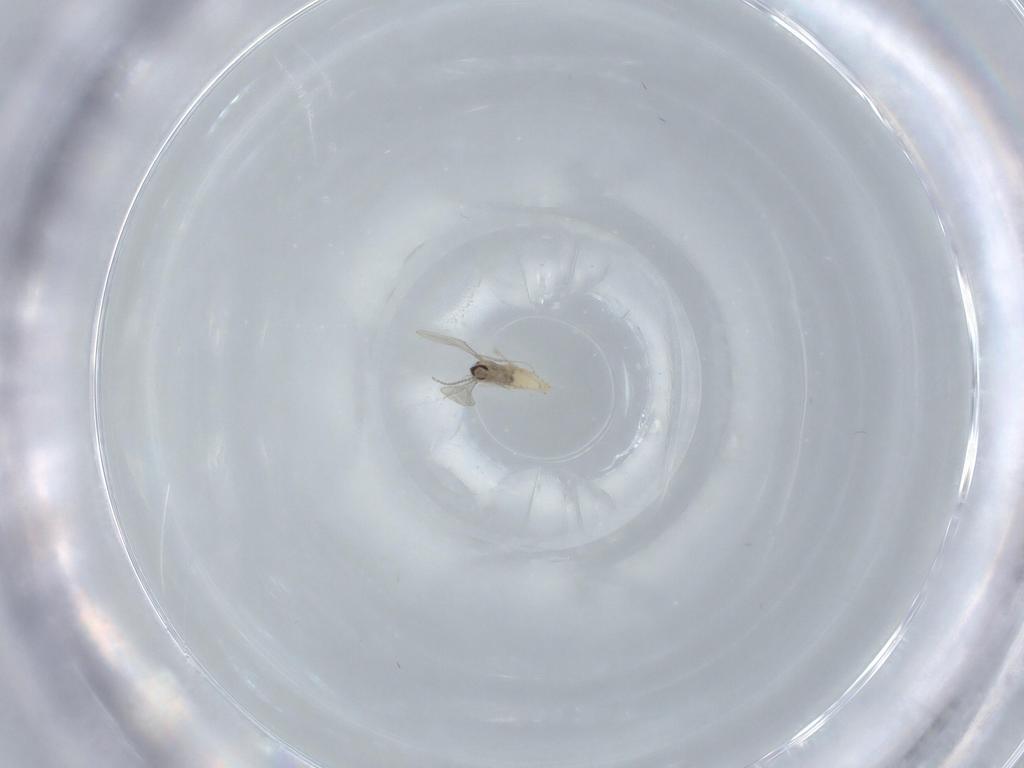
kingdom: Animalia
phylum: Arthropoda
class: Insecta
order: Diptera
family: Cecidomyiidae
